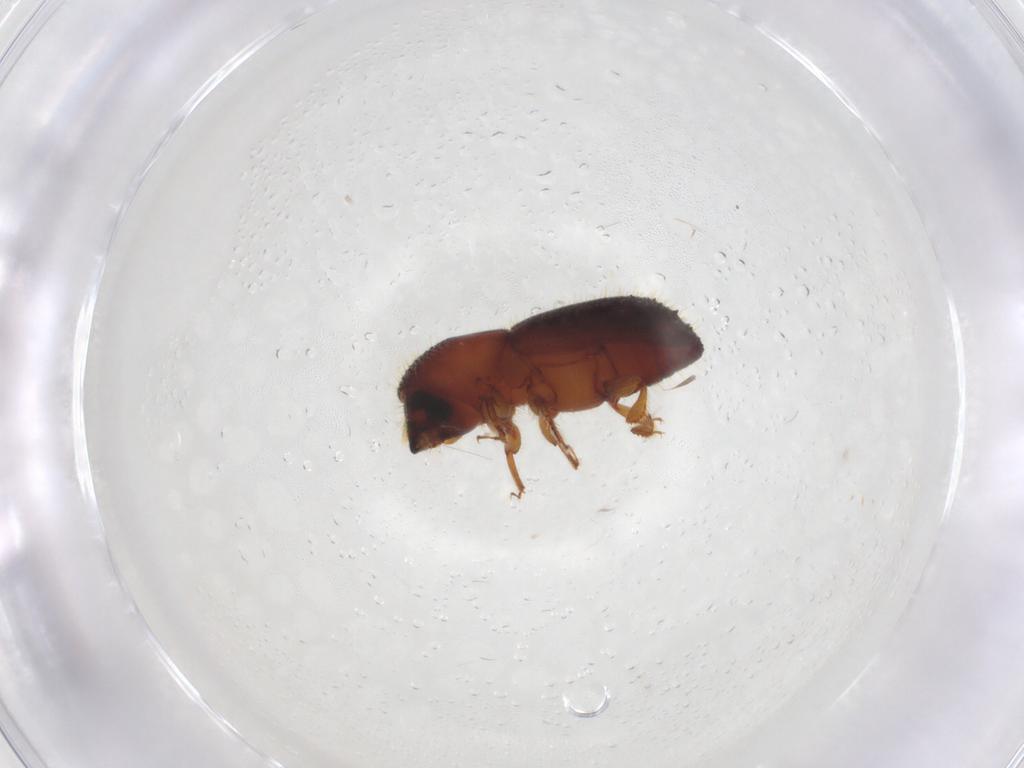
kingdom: Animalia
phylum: Arthropoda
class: Insecta
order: Coleoptera
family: Curculionidae
